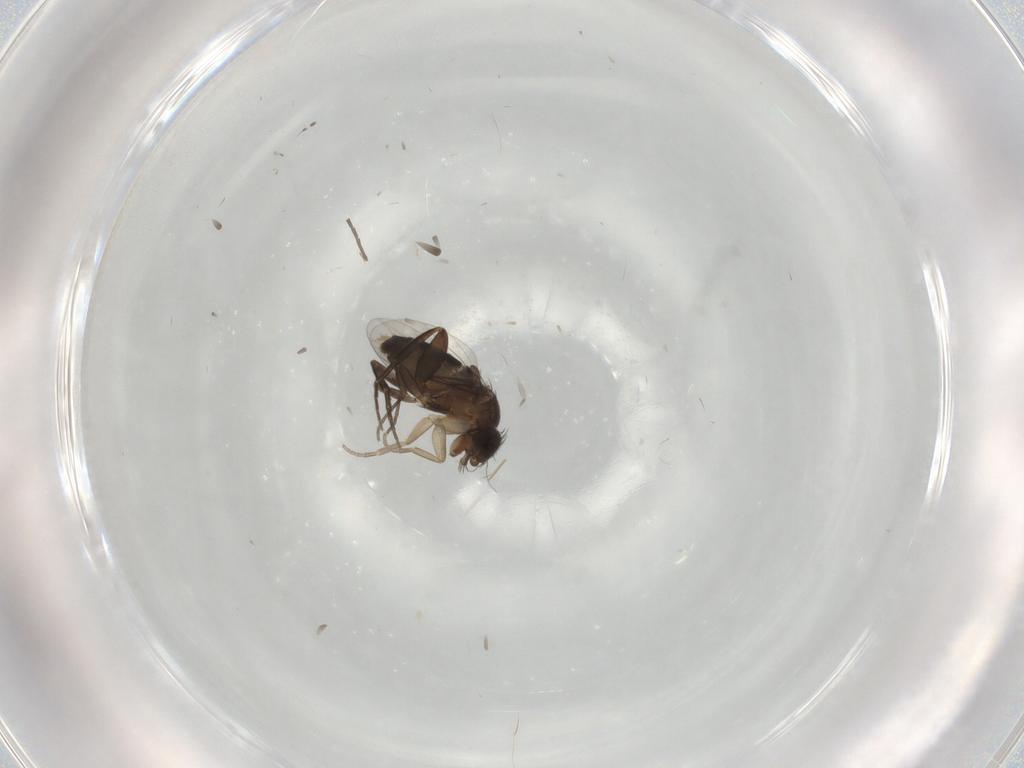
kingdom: Animalia
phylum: Arthropoda
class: Insecta
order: Diptera
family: Phoridae
